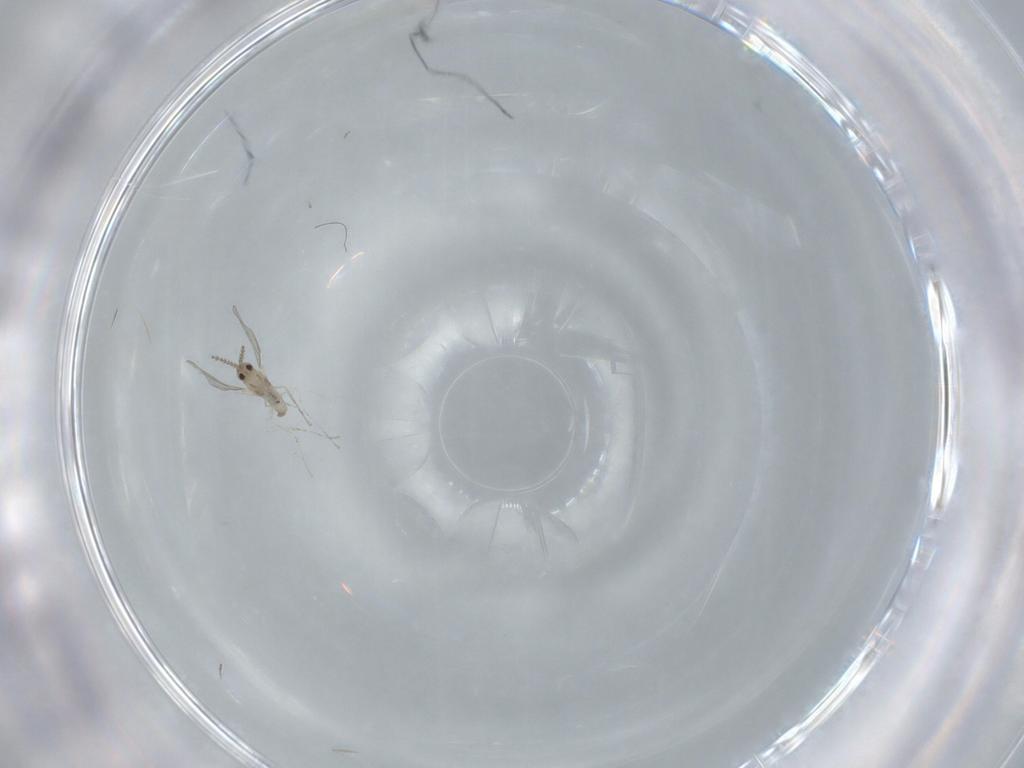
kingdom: Animalia
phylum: Arthropoda
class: Insecta
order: Diptera
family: Cecidomyiidae
